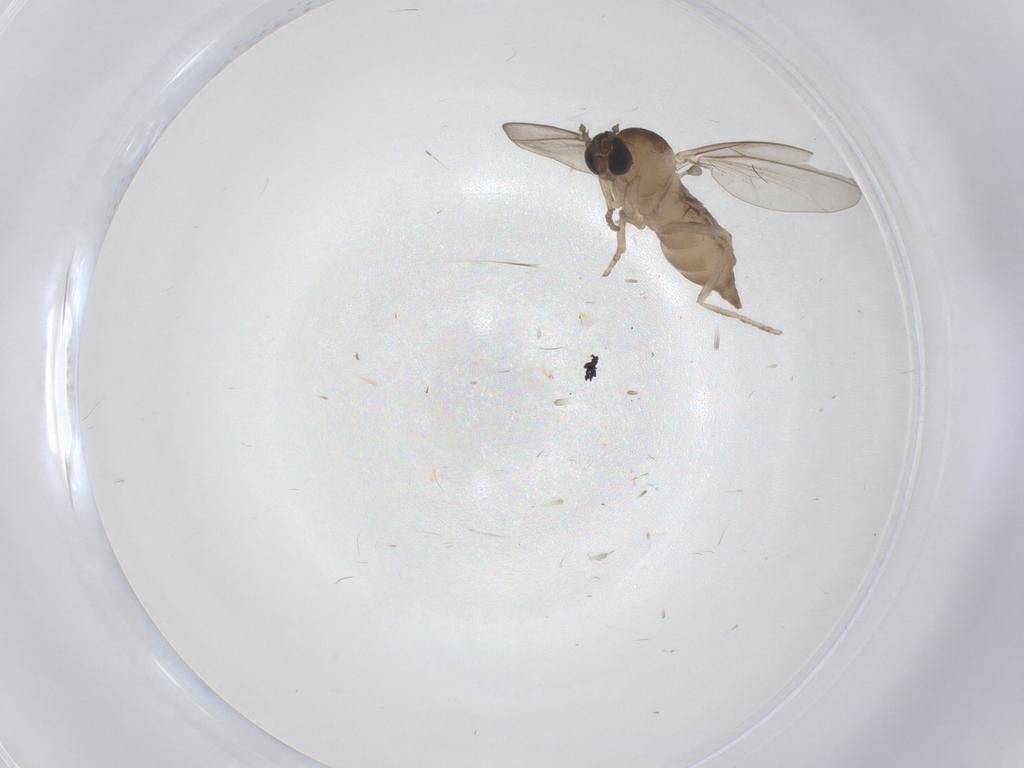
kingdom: Animalia
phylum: Arthropoda
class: Insecta
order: Diptera
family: Cecidomyiidae
